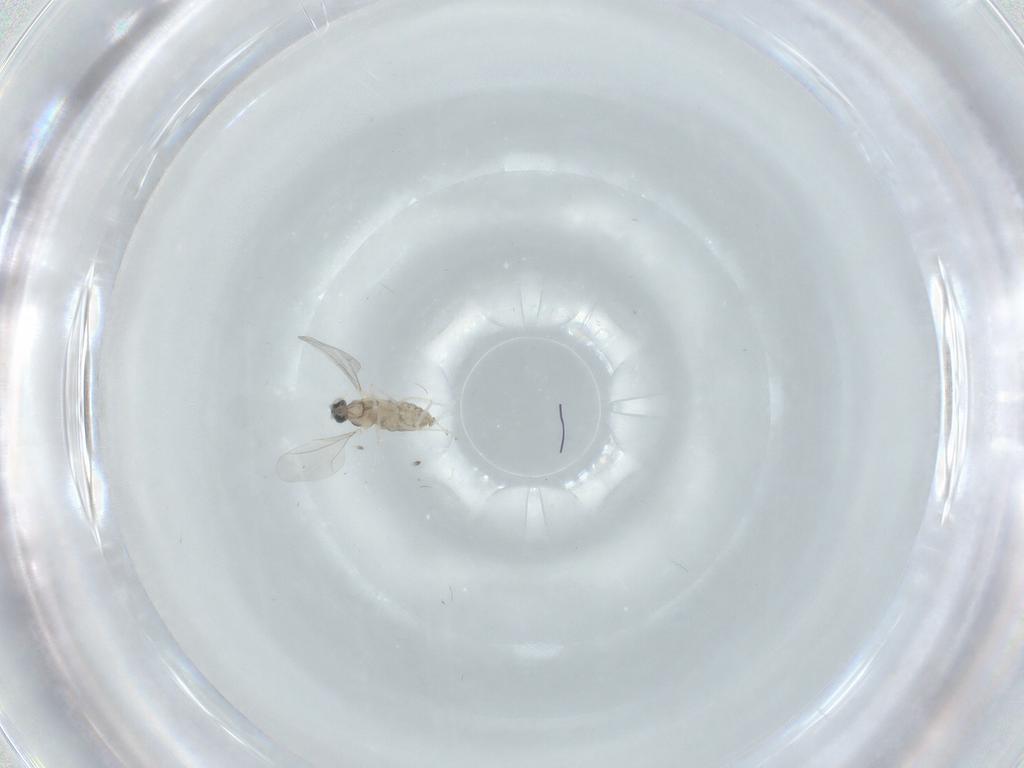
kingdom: Animalia
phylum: Arthropoda
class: Insecta
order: Diptera
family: Cecidomyiidae
